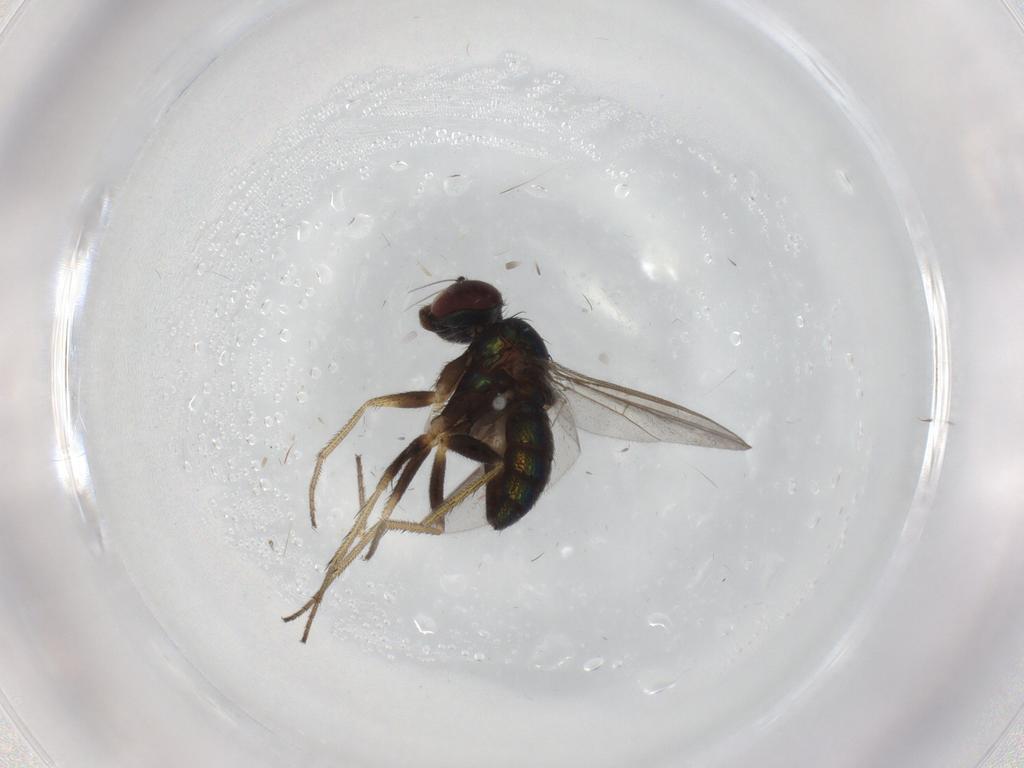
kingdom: Animalia
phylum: Arthropoda
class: Insecta
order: Diptera
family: Dolichopodidae
